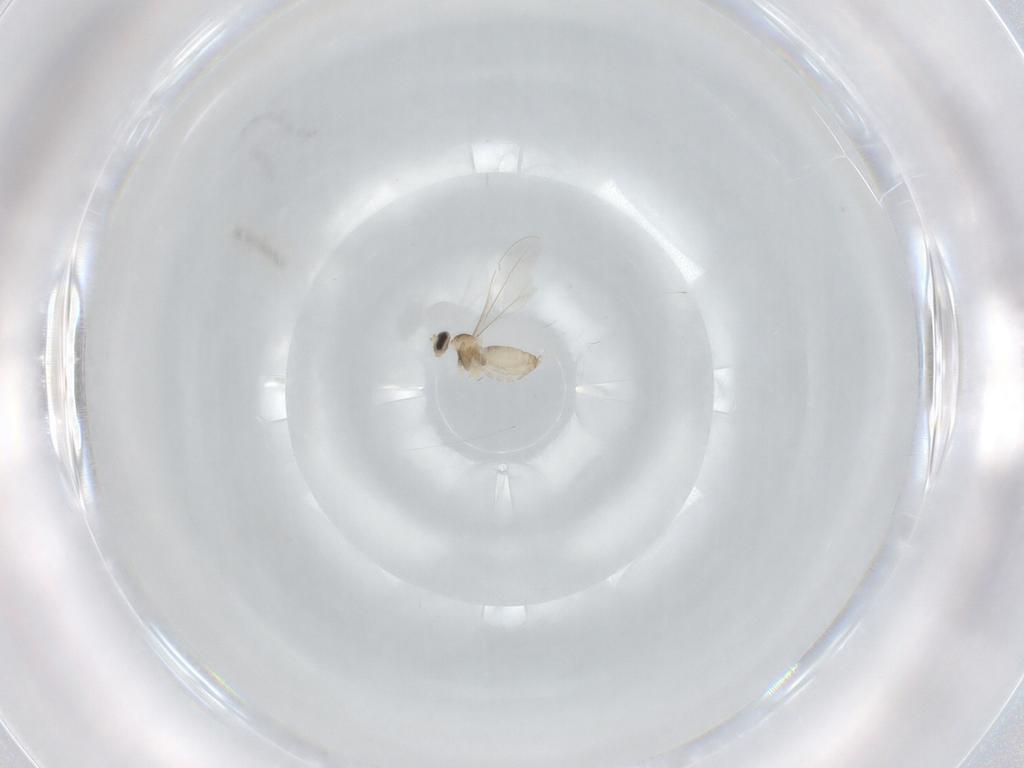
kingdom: Animalia
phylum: Arthropoda
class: Insecta
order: Diptera
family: Cecidomyiidae
